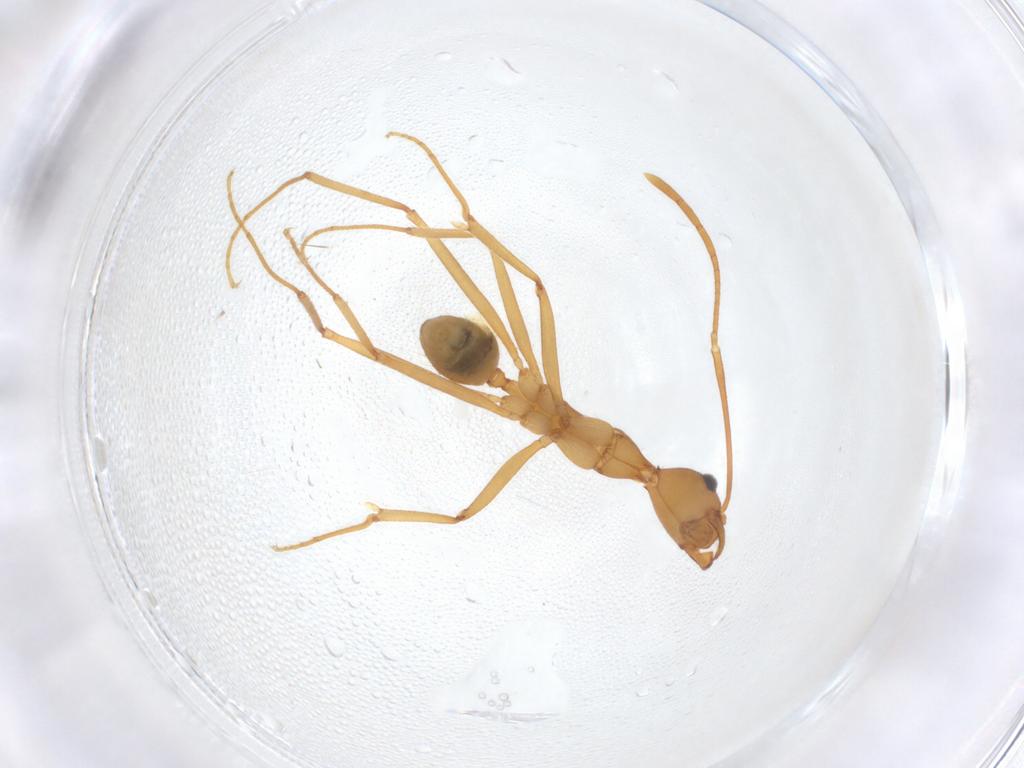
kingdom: Animalia
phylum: Arthropoda
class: Insecta
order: Hymenoptera
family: Formicidae
